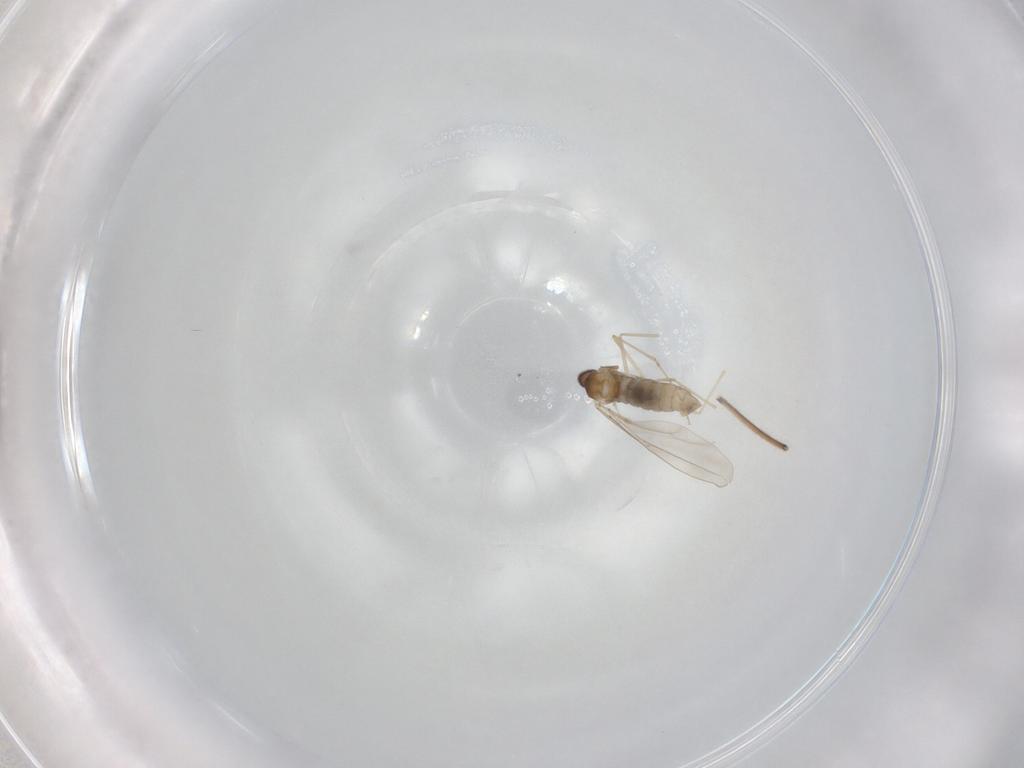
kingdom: Animalia
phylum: Arthropoda
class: Insecta
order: Diptera
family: Cecidomyiidae
